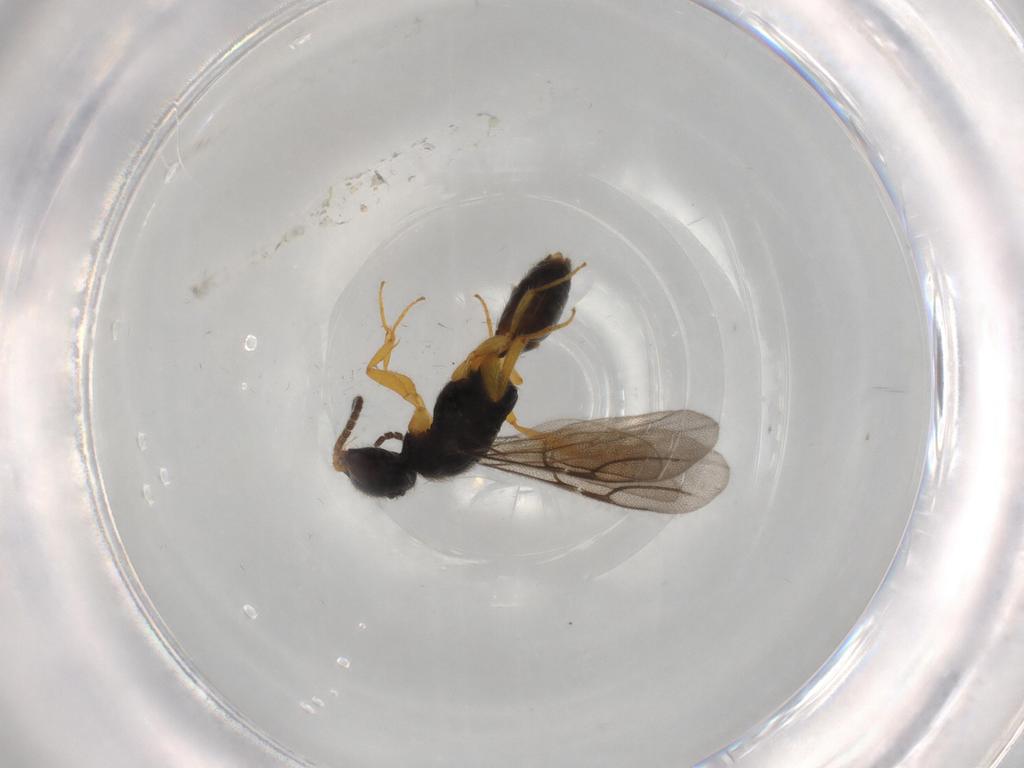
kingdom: Animalia
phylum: Arthropoda
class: Insecta
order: Hymenoptera
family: Bethylidae
